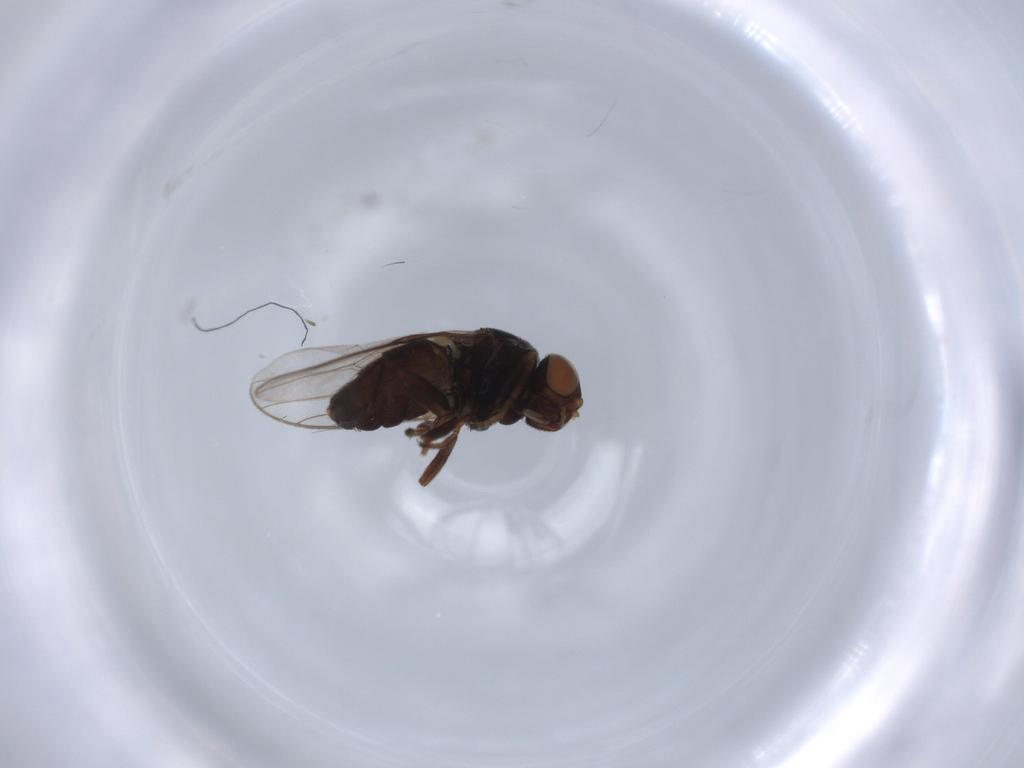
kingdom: Animalia
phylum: Arthropoda
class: Insecta
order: Diptera
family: Chloropidae
